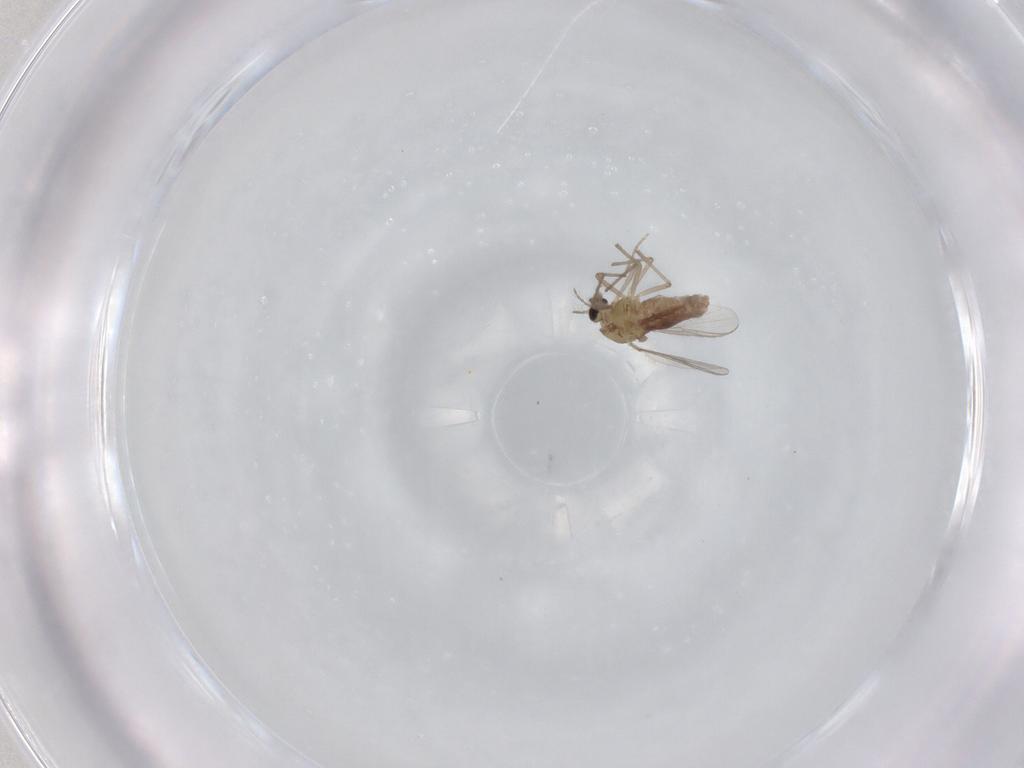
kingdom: Animalia
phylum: Arthropoda
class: Insecta
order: Diptera
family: Chironomidae
